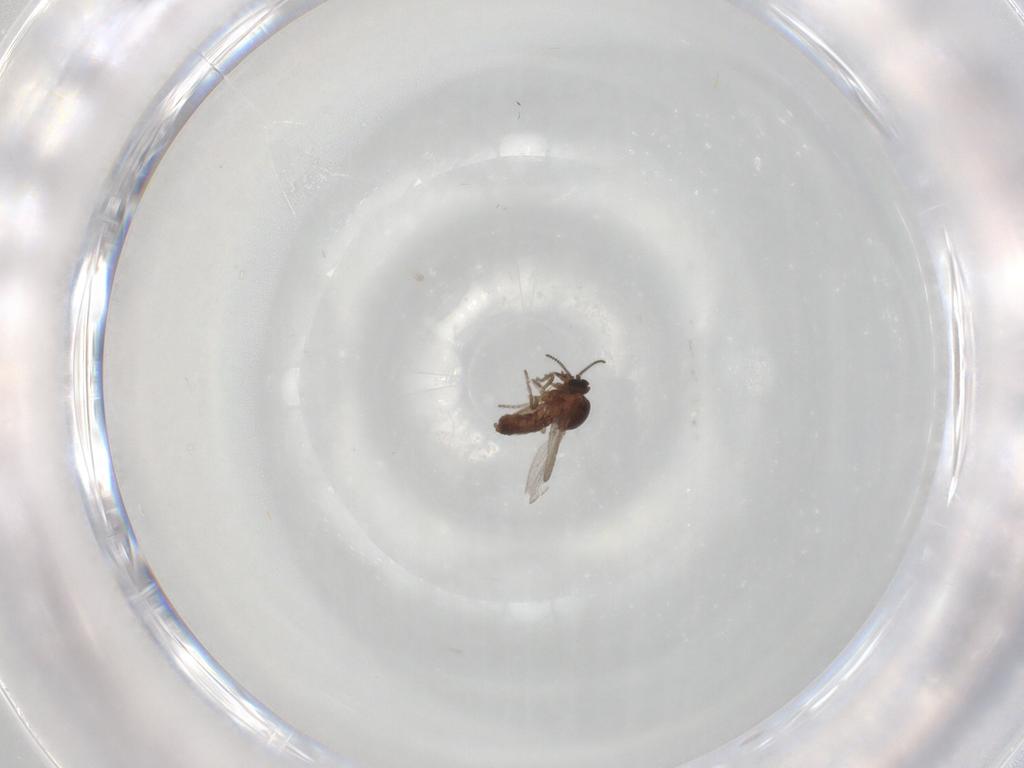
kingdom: Animalia
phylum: Arthropoda
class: Insecta
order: Diptera
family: Ceratopogonidae
